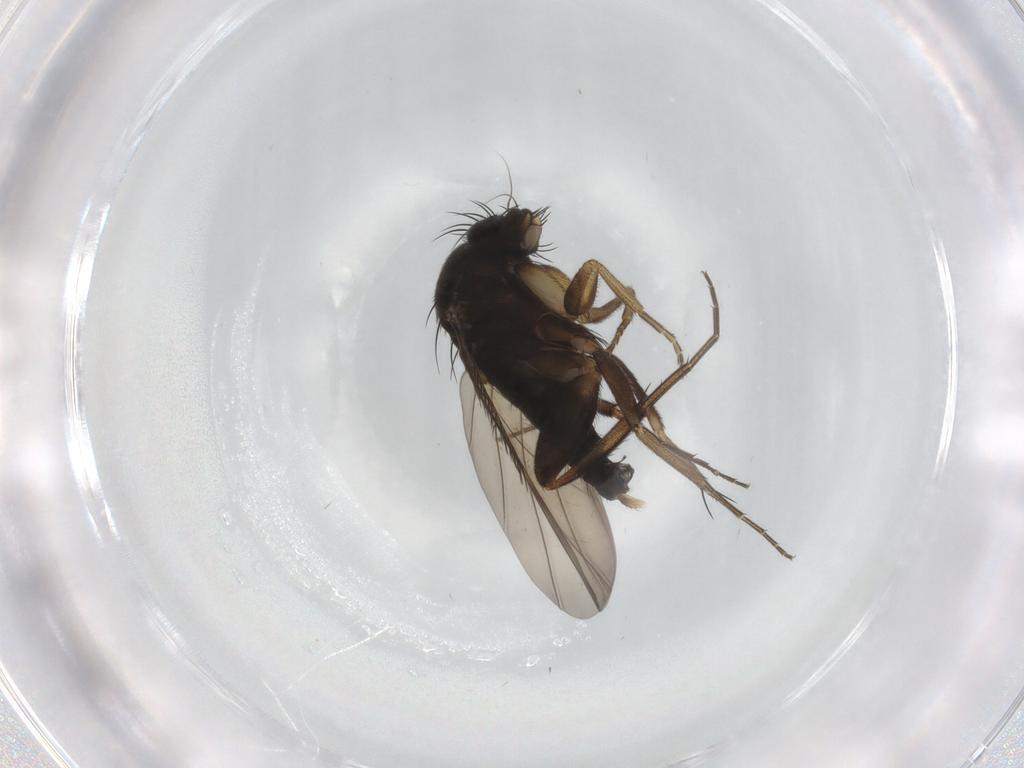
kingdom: Animalia
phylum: Arthropoda
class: Insecta
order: Diptera
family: Phoridae
